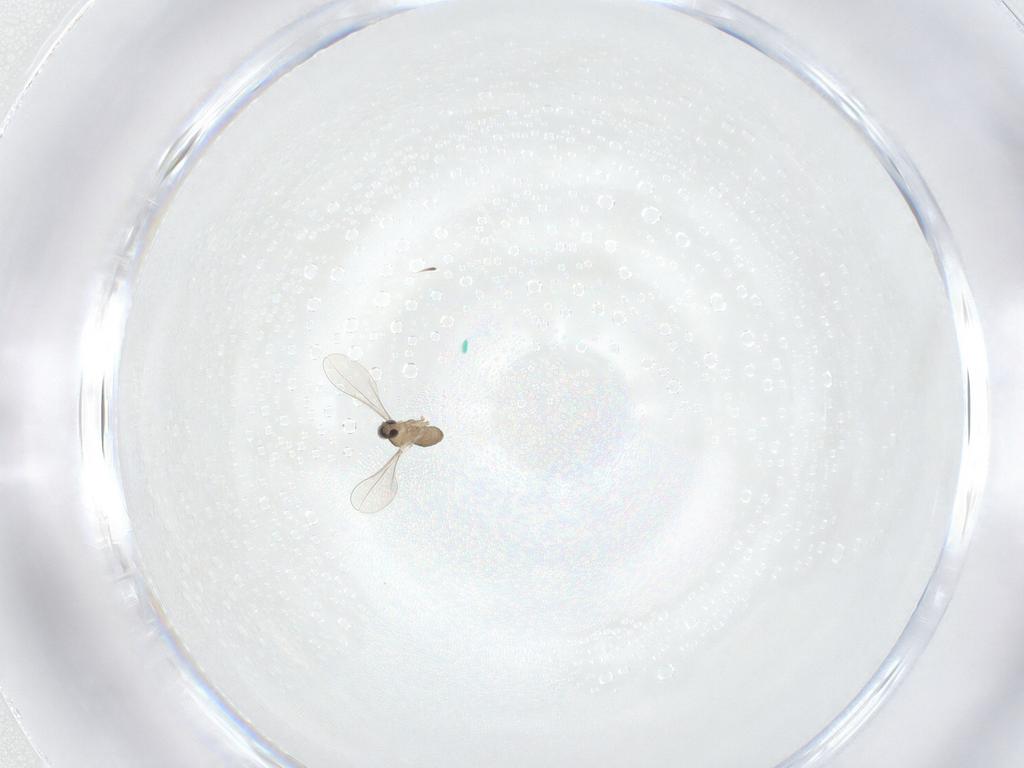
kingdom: Animalia
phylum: Arthropoda
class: Insecta
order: Diptera
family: Cecidomyiidae
